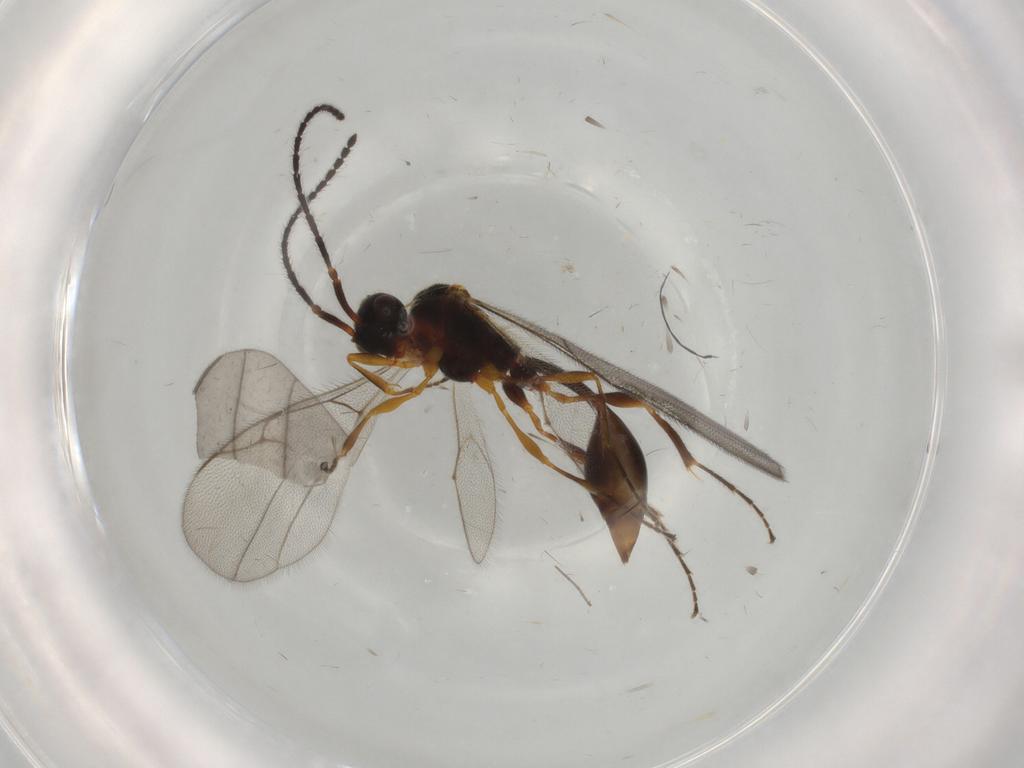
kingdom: Animalia
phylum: Arthropoda
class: Insecta
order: Hymenoptera
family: Diapriidae
